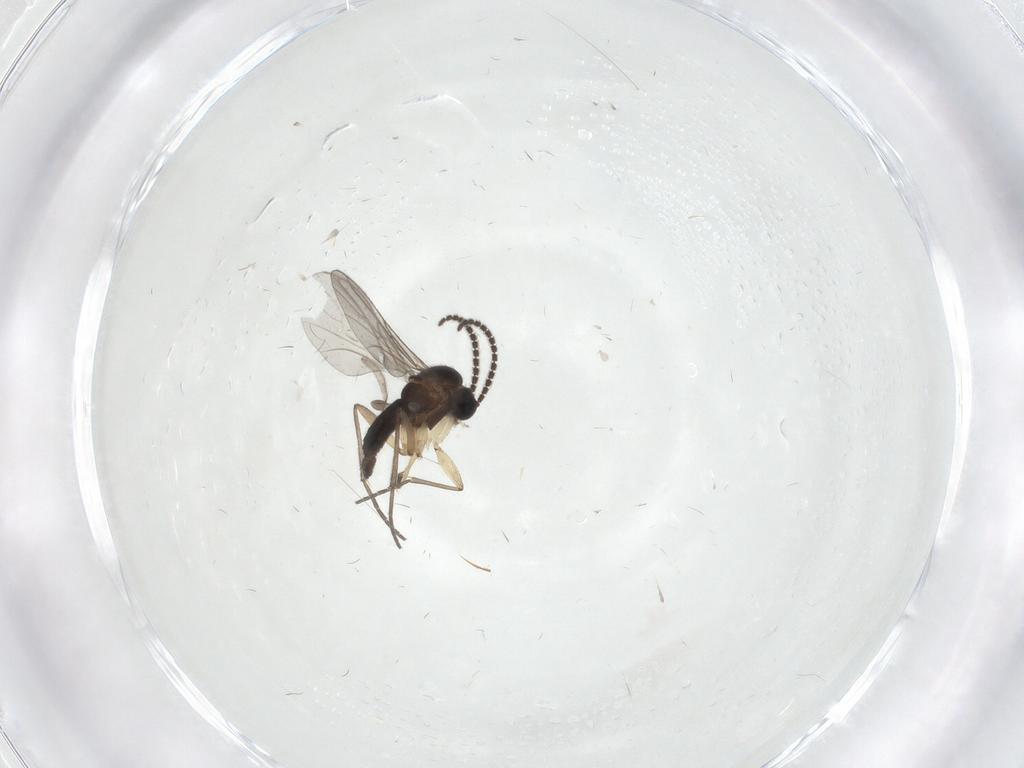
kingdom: Animalia
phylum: Arthropoda
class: Insecta
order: Diptera
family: Sciaridae
